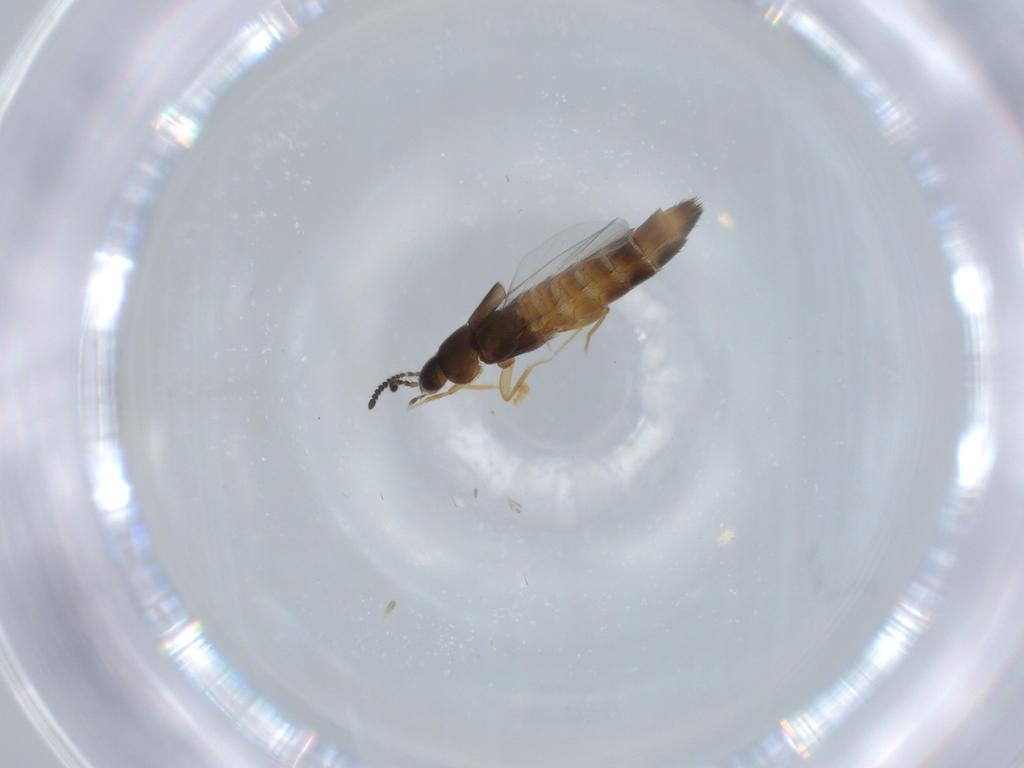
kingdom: Animalia
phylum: Arthropoda
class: Insecta
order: Coleoptera
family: Staphylinidae
